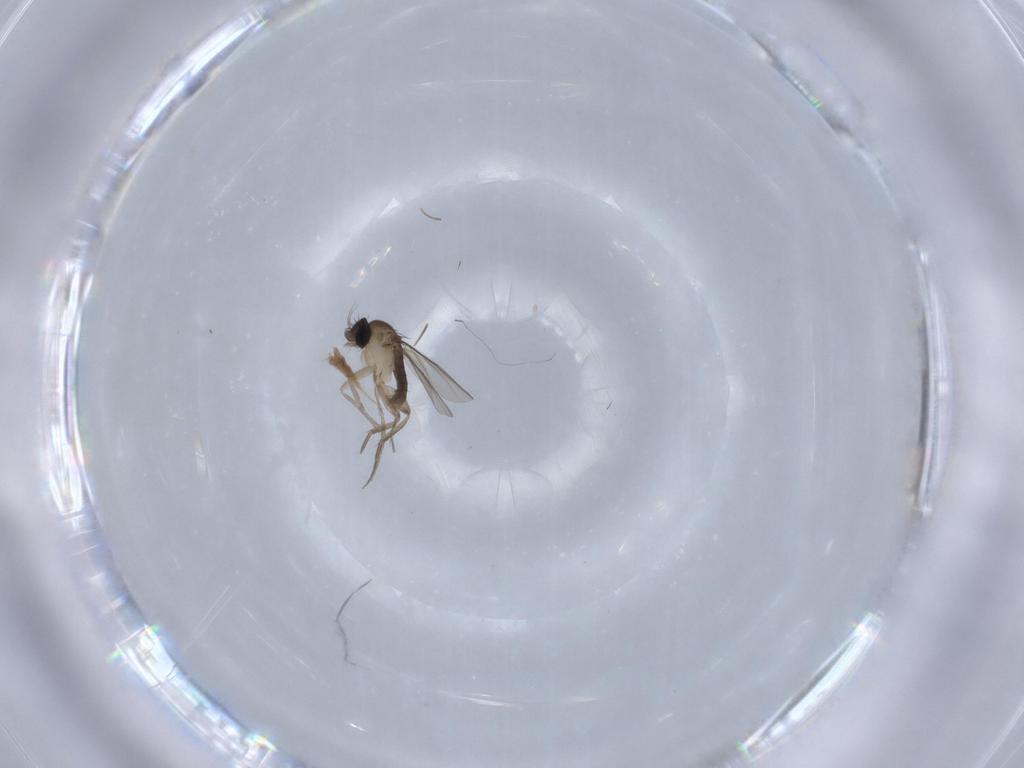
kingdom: Animalia
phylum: Arthropoda
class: Insecta
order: Diptera
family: Phoridae
